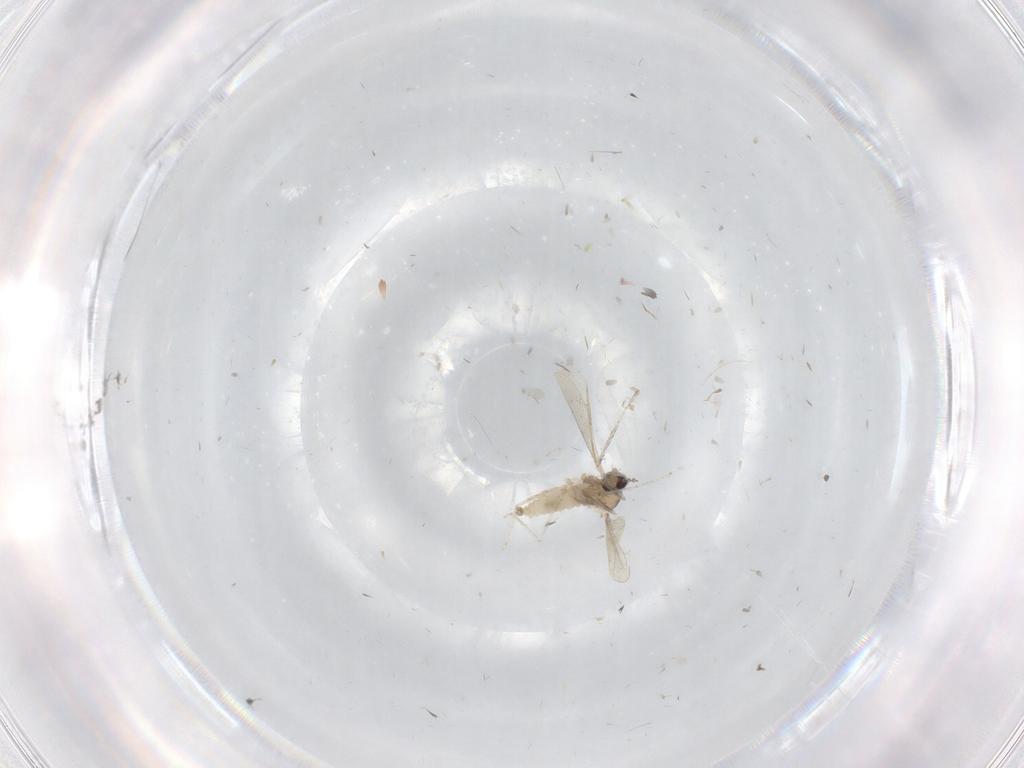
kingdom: Animalia
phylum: Arthropoda
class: Insecta
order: Diptera
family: Cecidomyiidae
